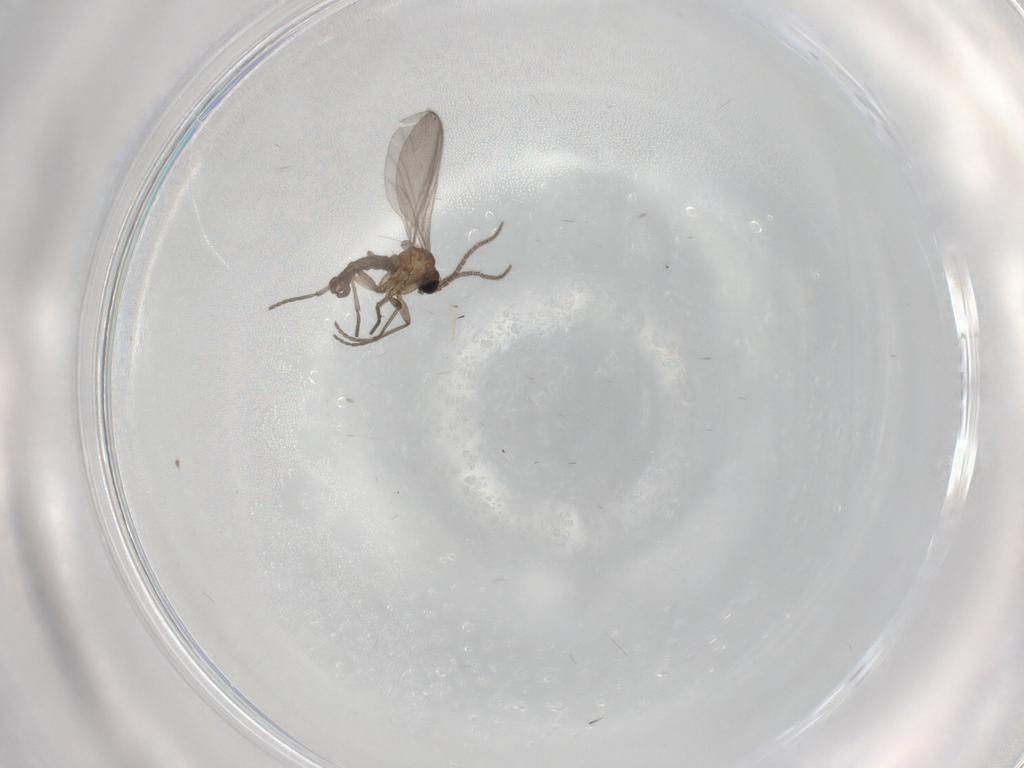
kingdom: Animalia
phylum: Arthropoda
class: Insecta
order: Diptera
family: Sciaridae
